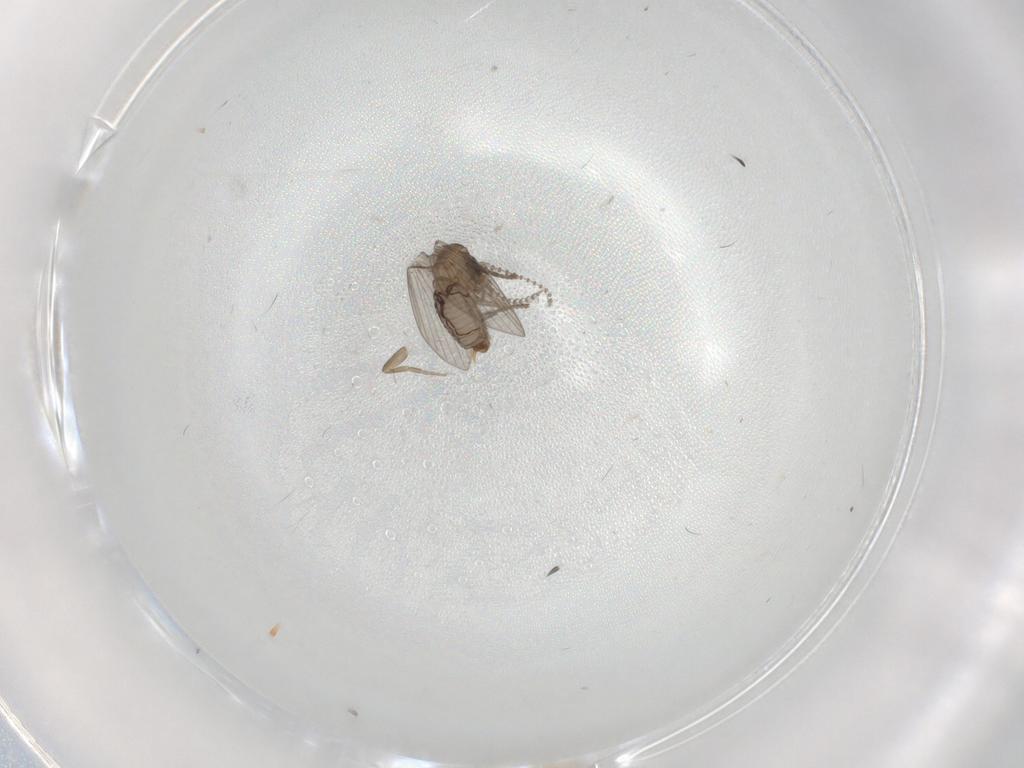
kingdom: Animalia
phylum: Arthropoda
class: Insecta
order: Diptera
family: Psychodidae
